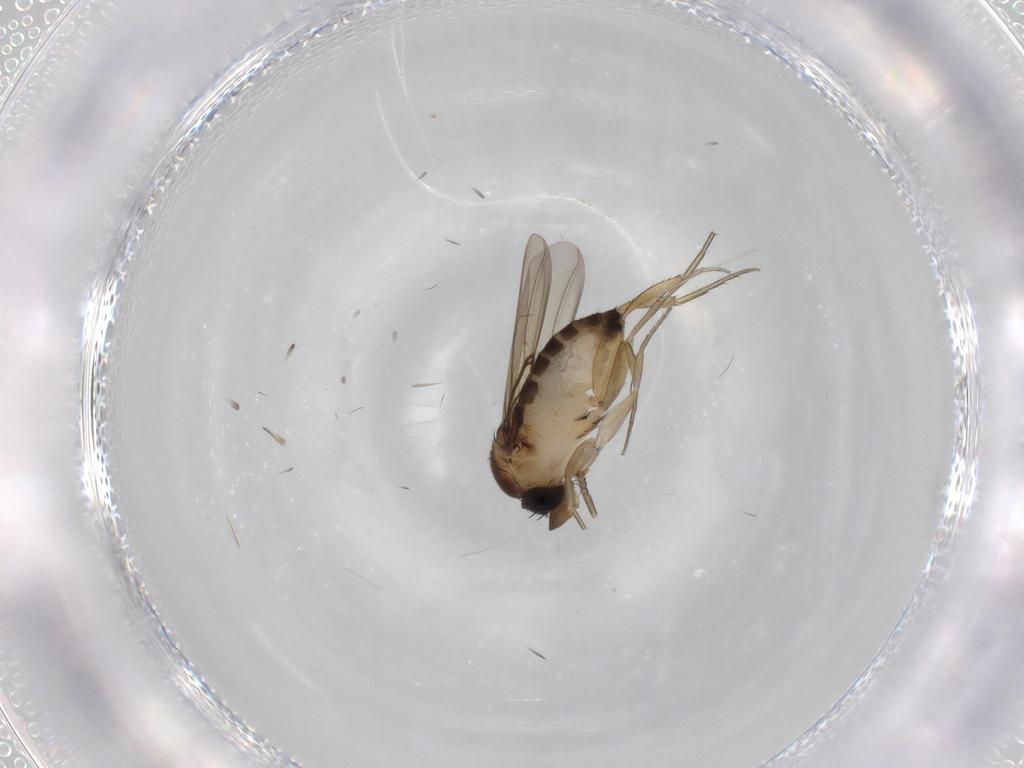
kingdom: Animalia
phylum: Arthropoda
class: Insecta
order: Diptera
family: Phoridae
